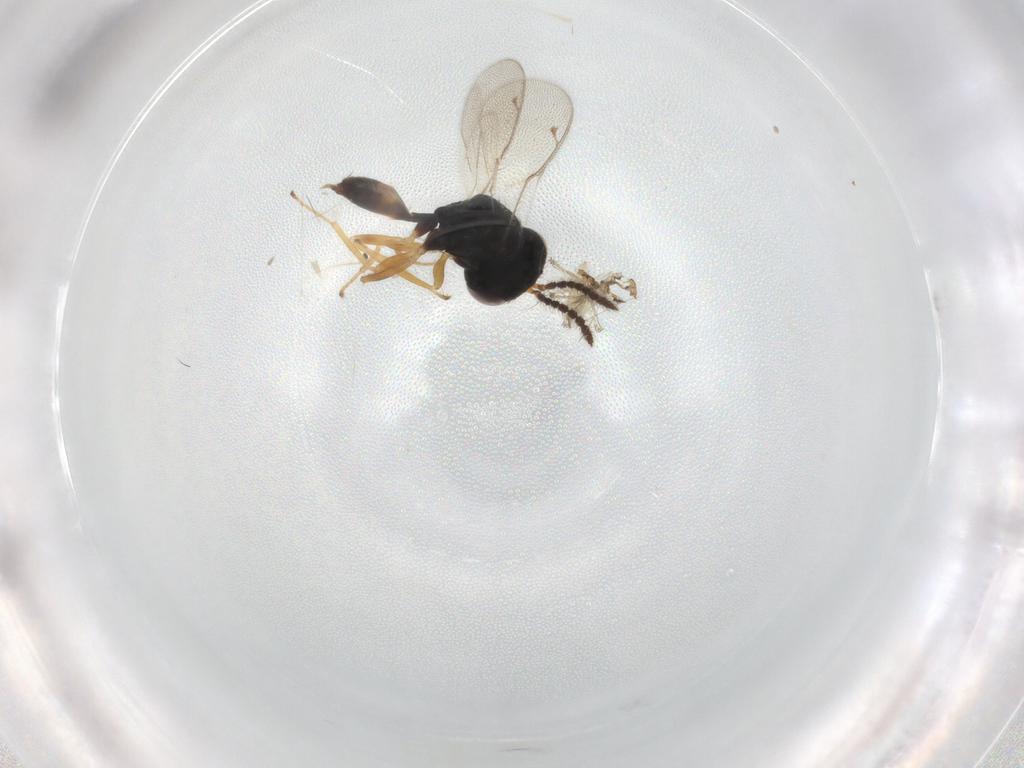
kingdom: Animalia
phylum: Arthropoda
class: Insecta
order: Hymenoptera
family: Pteromalidae
